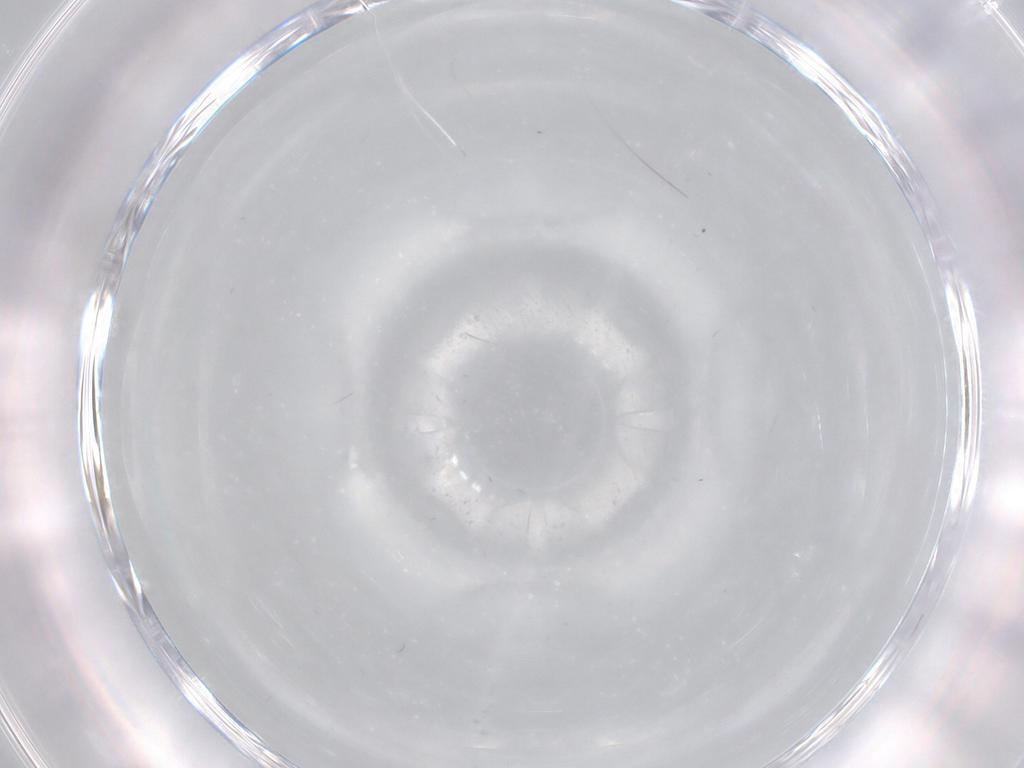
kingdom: Animalia
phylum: Arthropoda
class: Insecta
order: Diptera
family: Cecidomyiidae
